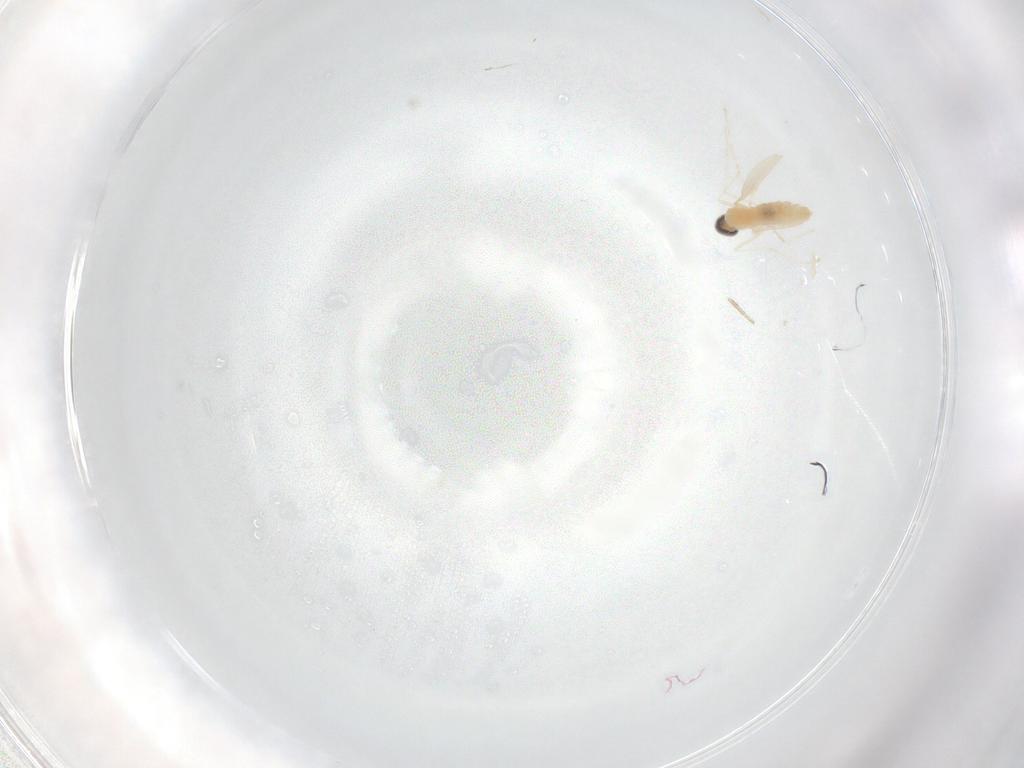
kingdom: Animalia
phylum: Arthropoda
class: Insecta
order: Diptera
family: Cecidomyiidae
